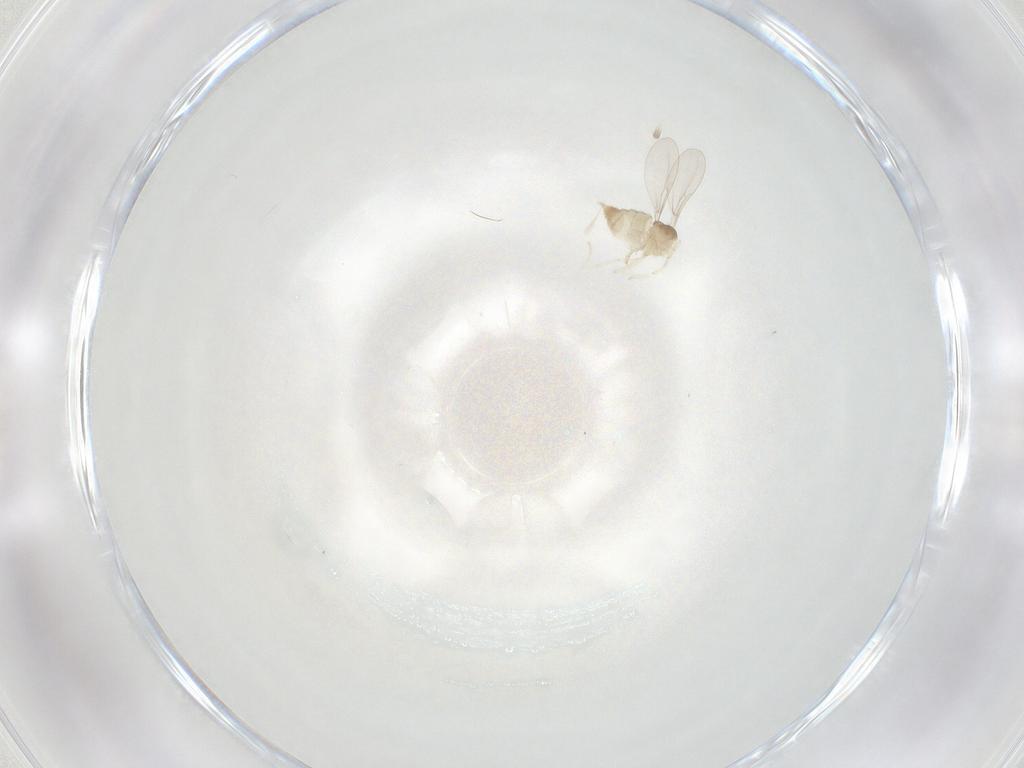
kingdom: Animalia
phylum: Arthropoda
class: Insecta
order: Diptera
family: Cecidomyiidae
